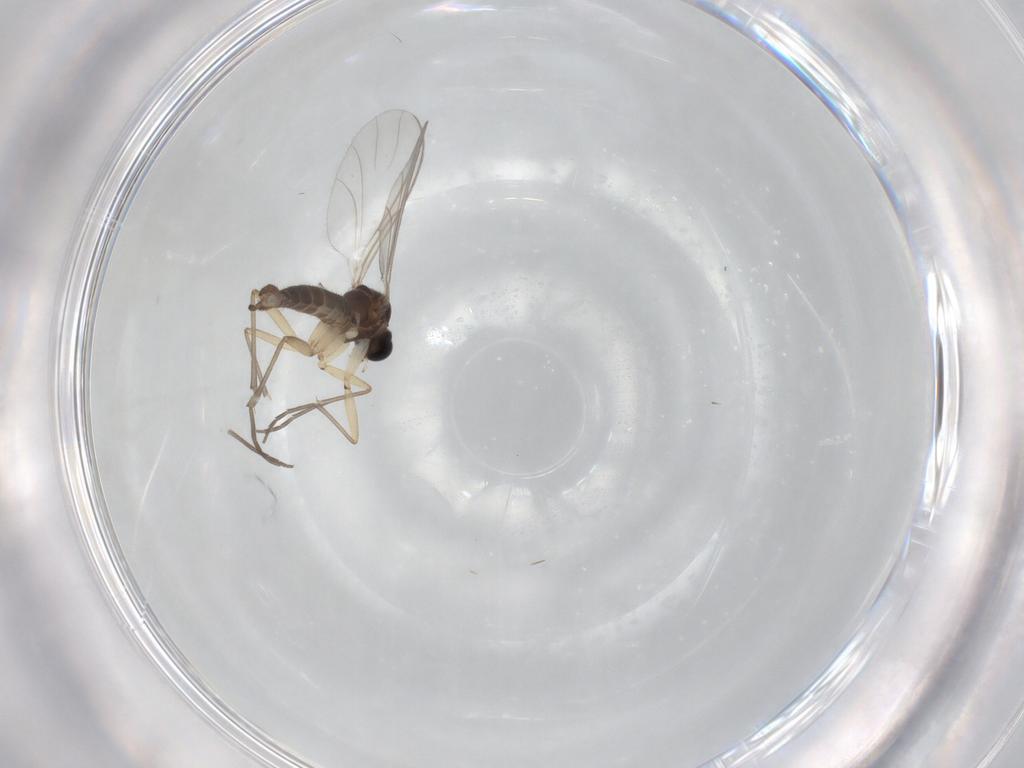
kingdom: Animalia
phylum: Arthropoda
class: Insecta
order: Diptera
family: Sciaridae
